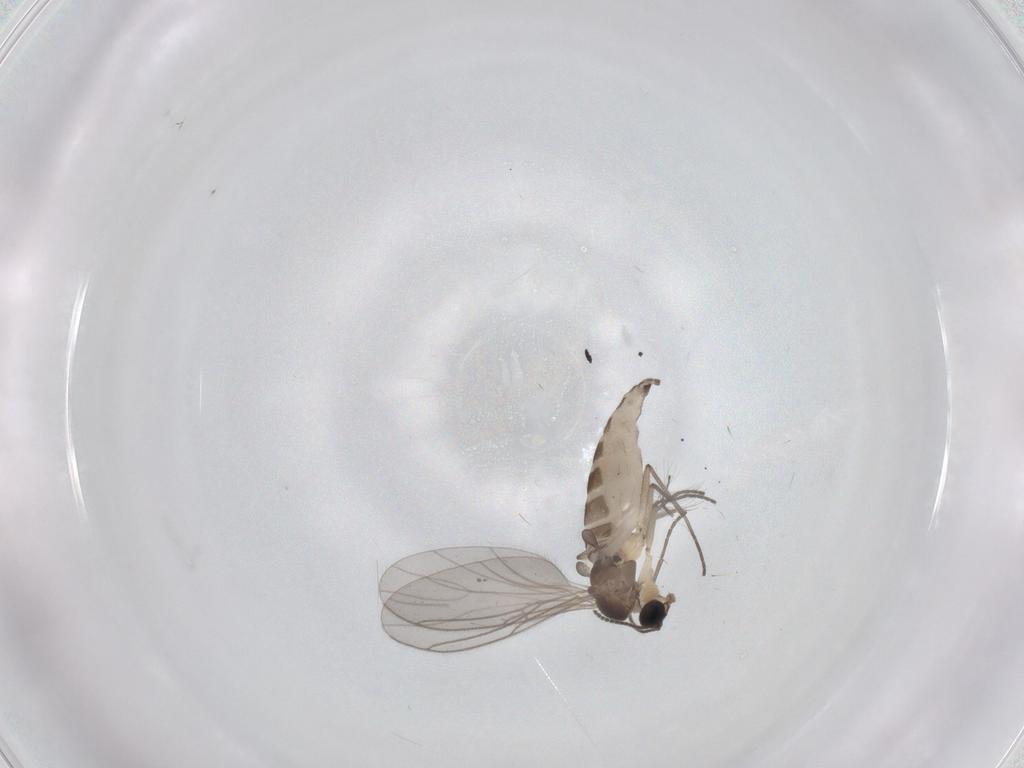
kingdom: Animalia
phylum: Arthropoda
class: Insecta
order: Diptera
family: Sciaridae
